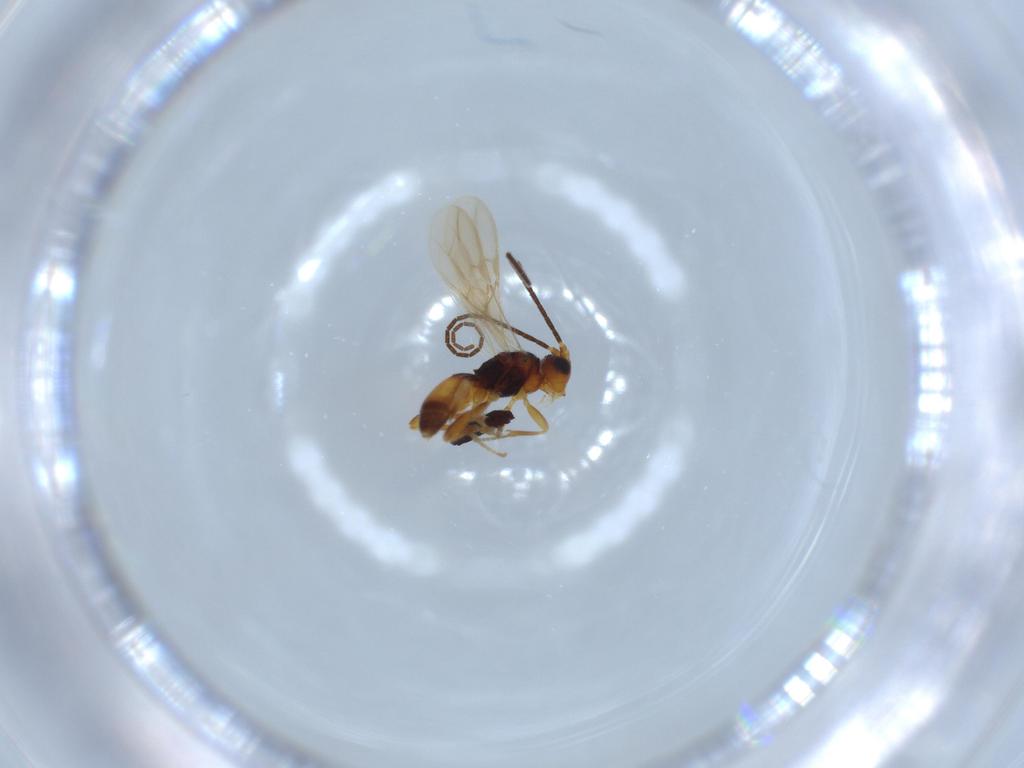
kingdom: Animalia
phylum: Arthropoda
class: Insecta
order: Hymenoptera
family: Braconidae
